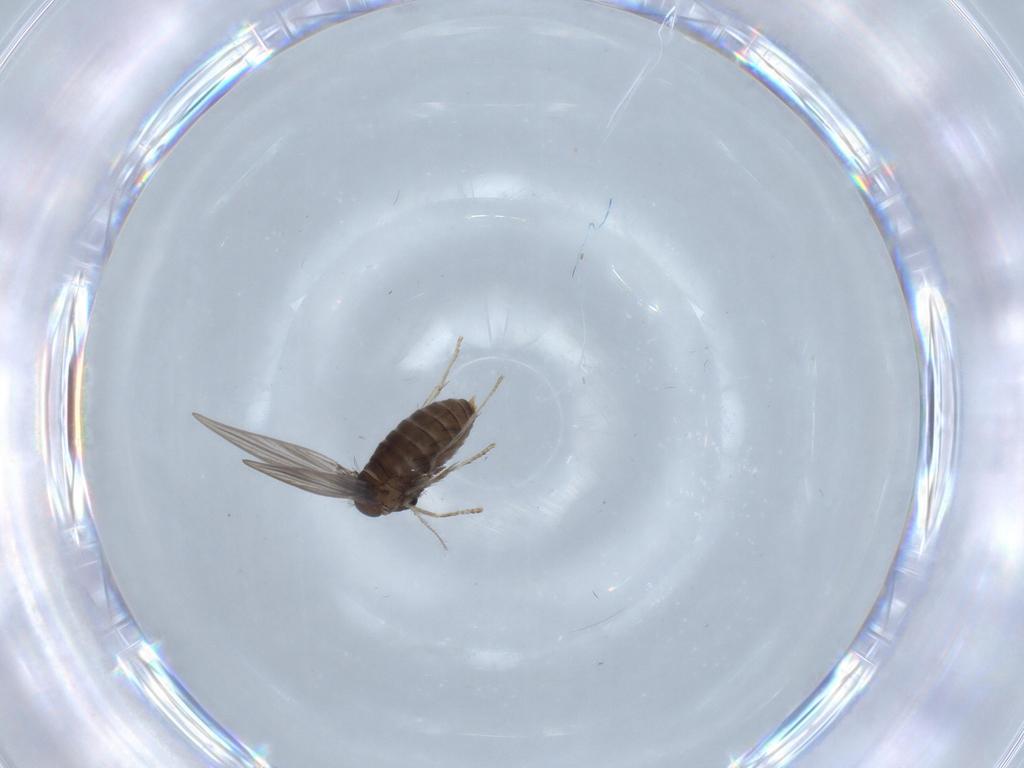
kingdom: Animalia
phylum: Arthropoda
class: Insecta
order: Diptera
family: Psychodidae
